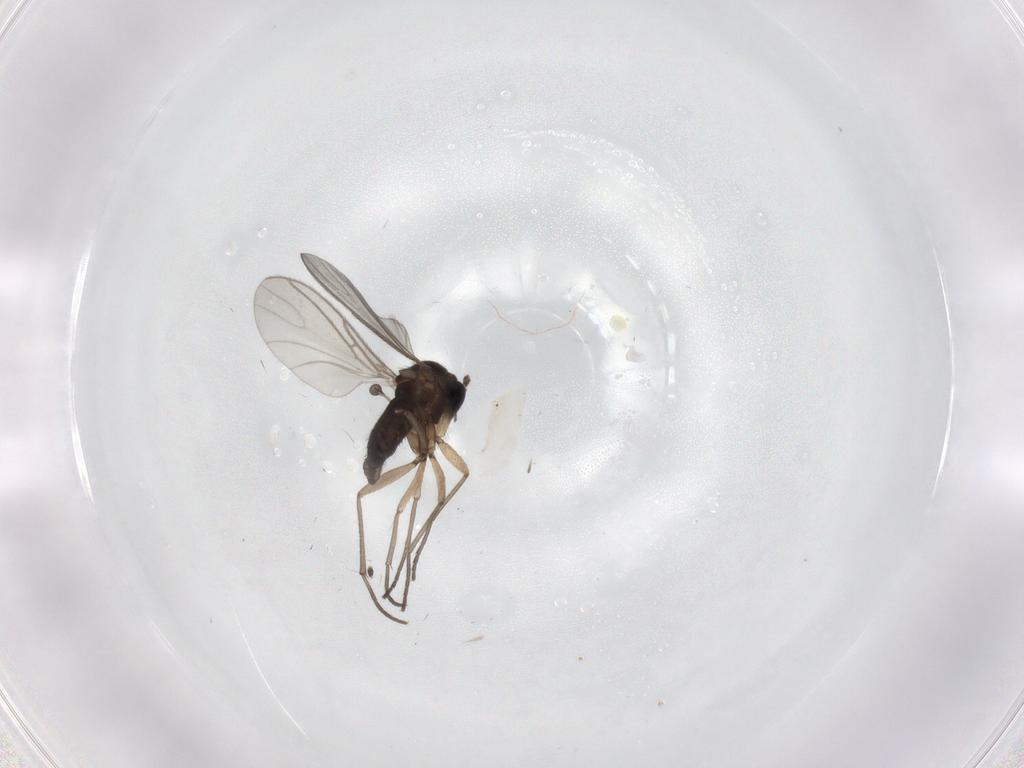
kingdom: Animalia
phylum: Arthropoda
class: Insecta
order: Diptera
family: Sciaridae
